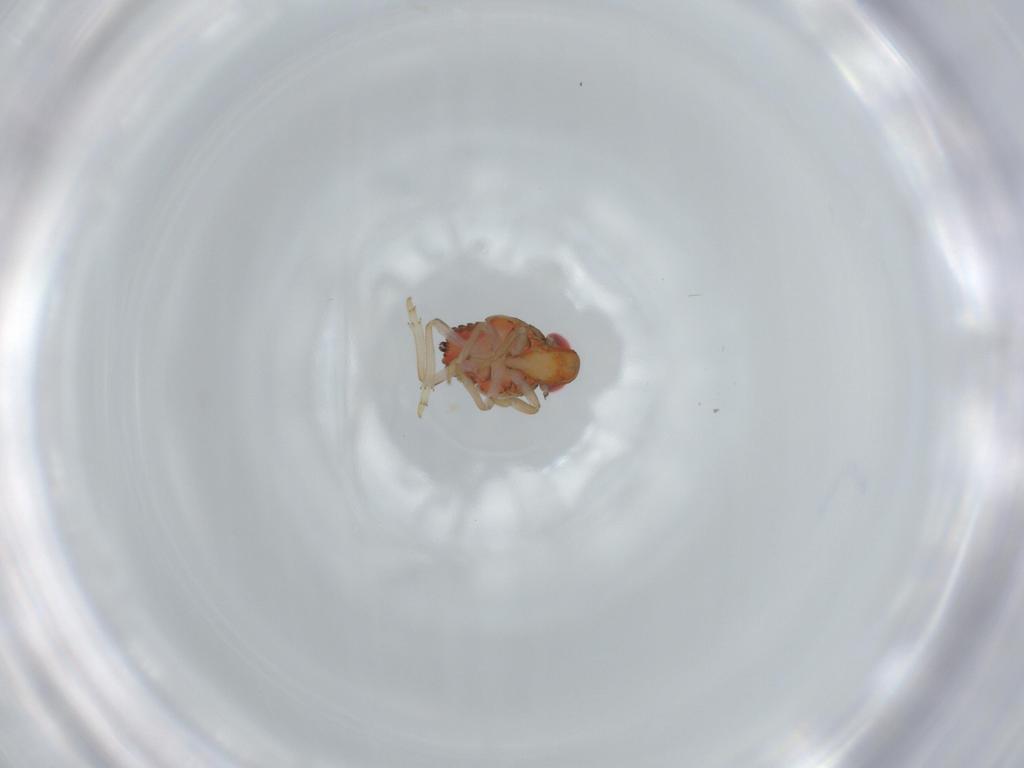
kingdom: Animalia
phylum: Arthropoda
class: Insecta
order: Hemiptera
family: Issidae
